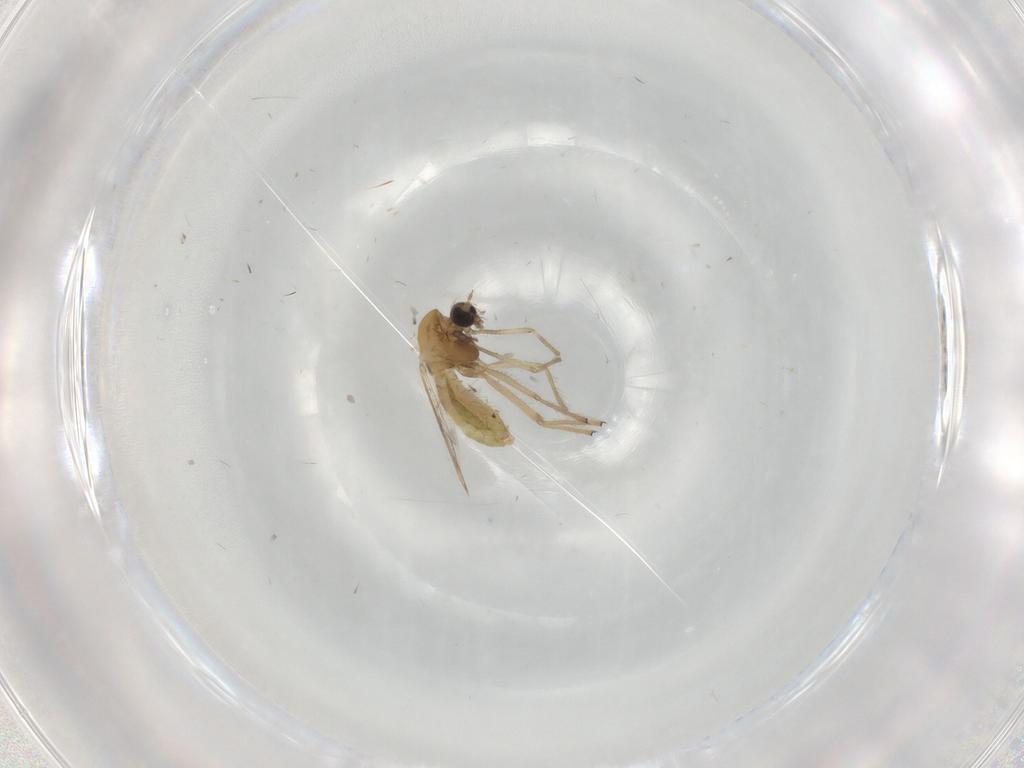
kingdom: Animalia
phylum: Arthropoda
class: Insecta
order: Diptera
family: Chironomidae
